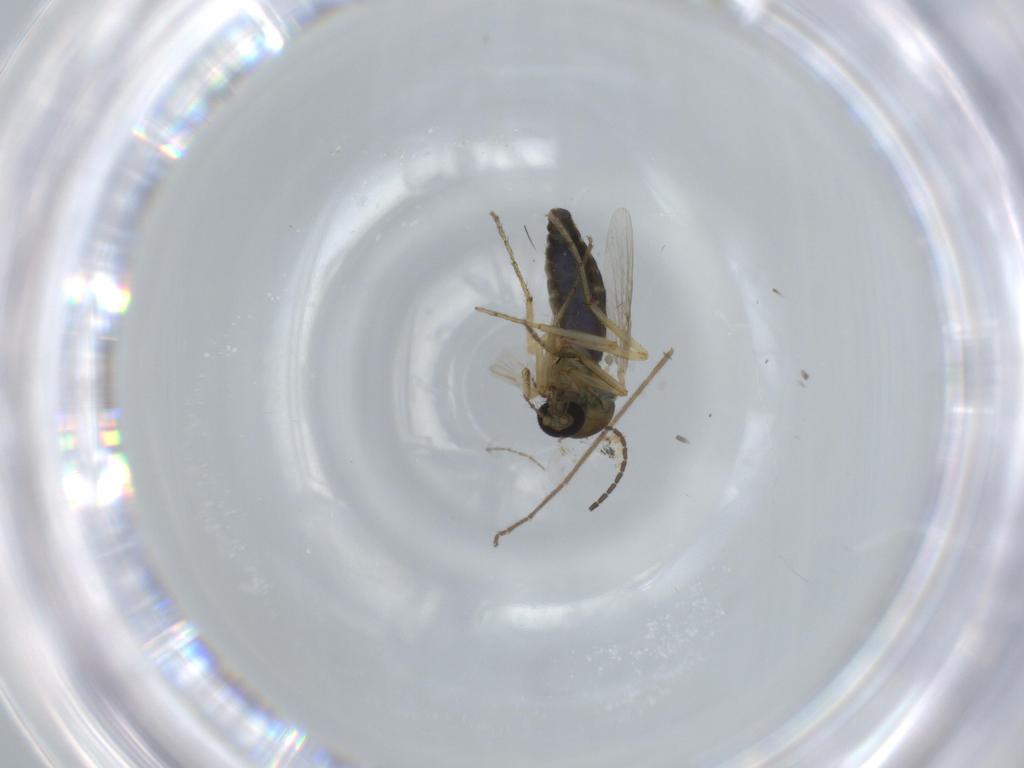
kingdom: Animalia
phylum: Arthropoda
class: Insecta
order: Diptera
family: Ceratopogonidae
